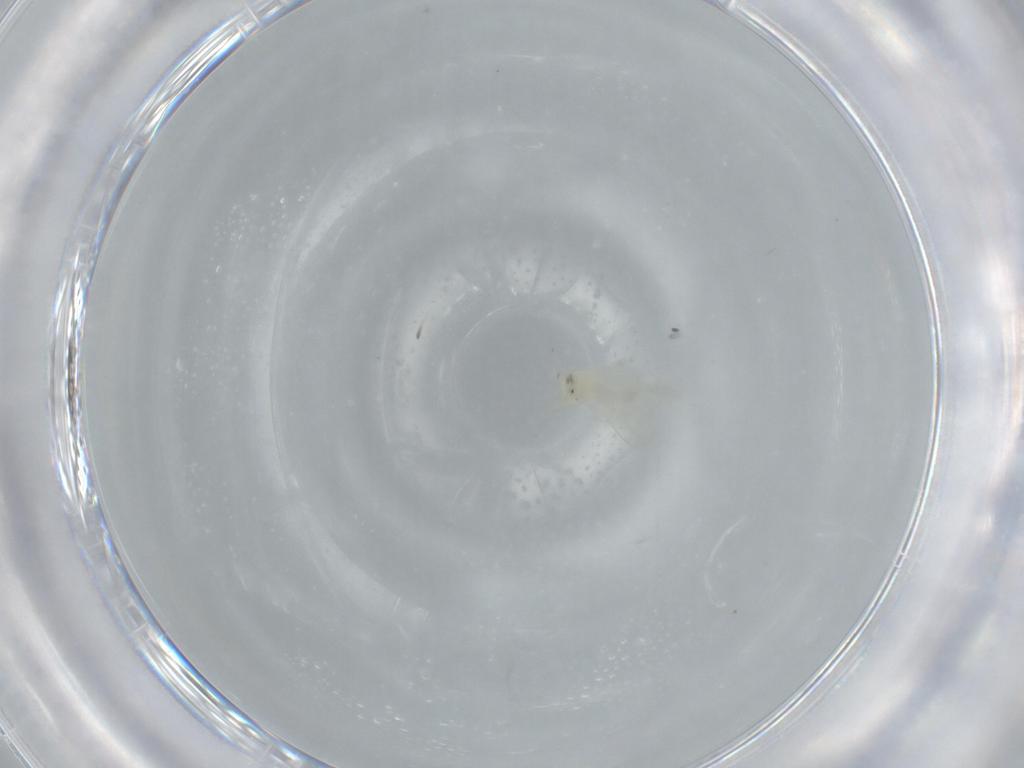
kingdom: Animalia
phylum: Arthropoda
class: Insecta
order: Hemiptera
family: Aleyrodidae
